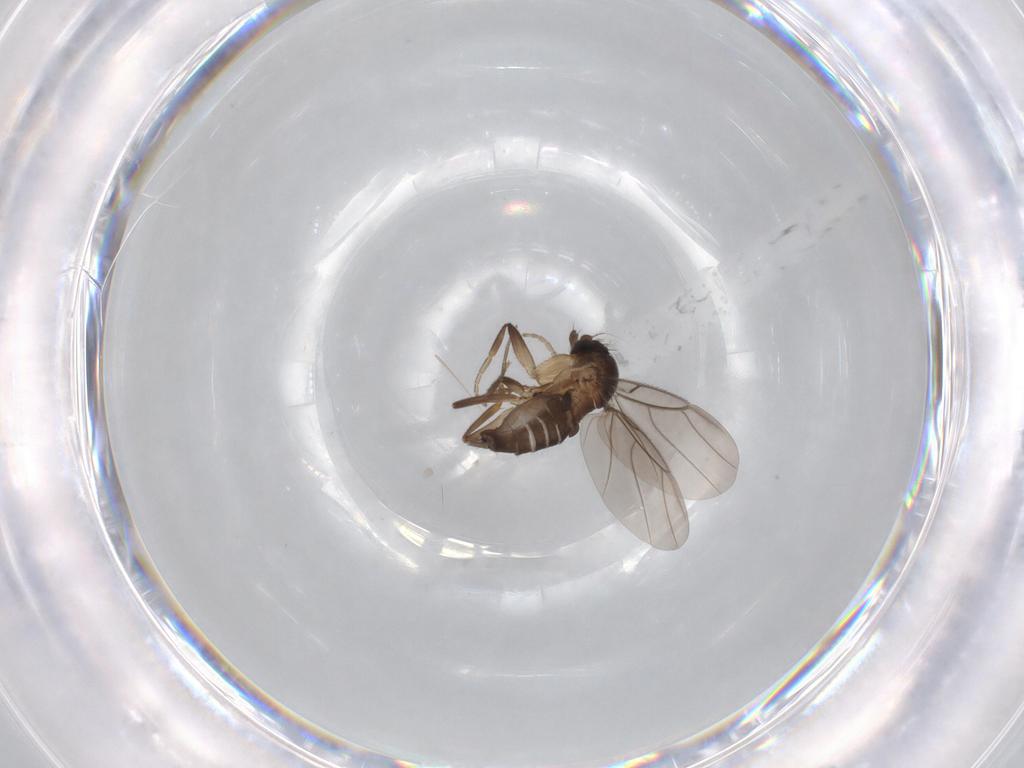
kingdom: Animalia
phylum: Arthropoda
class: Insecta
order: Diptera
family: Phoridae
